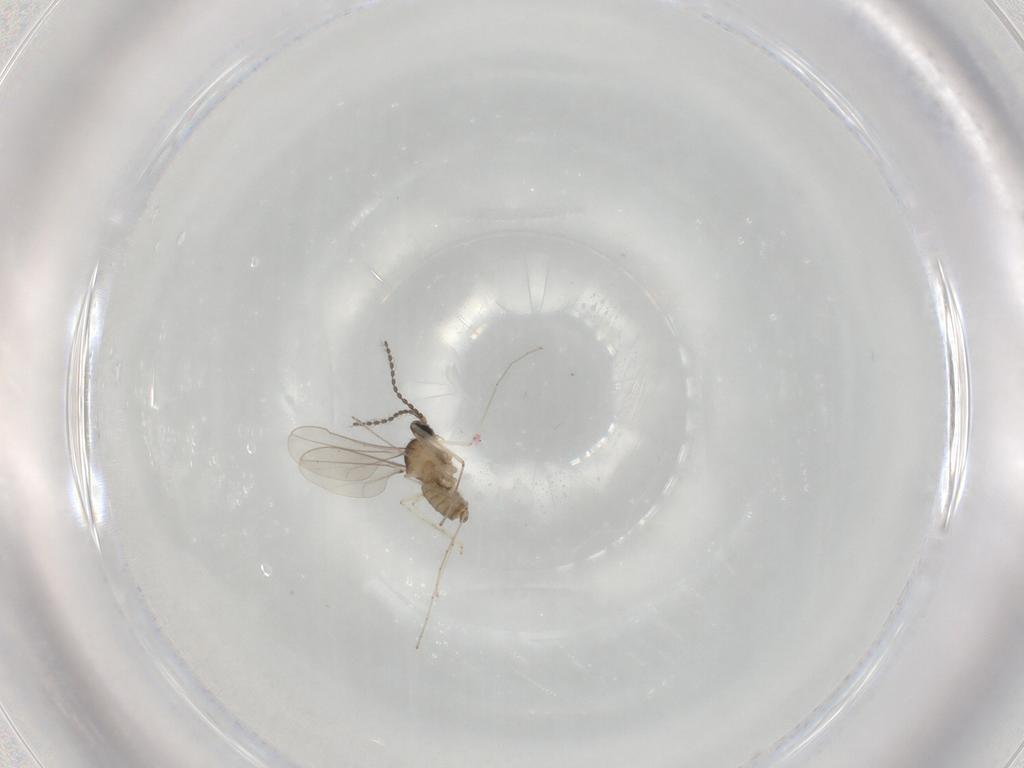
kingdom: Animalia
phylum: Arthropoda
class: Insecta
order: Diptera
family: Cecidomyiidae
